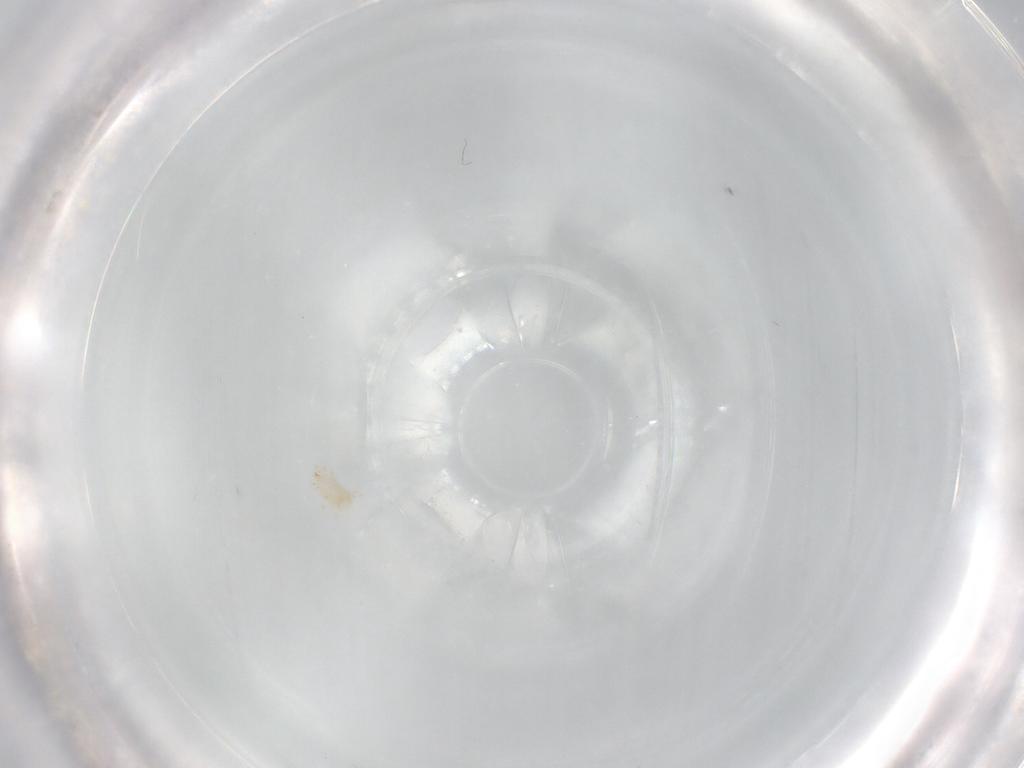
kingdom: Animalia
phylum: Arthropoda
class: Arachnida
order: Mesostigmata
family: Laelapidae
